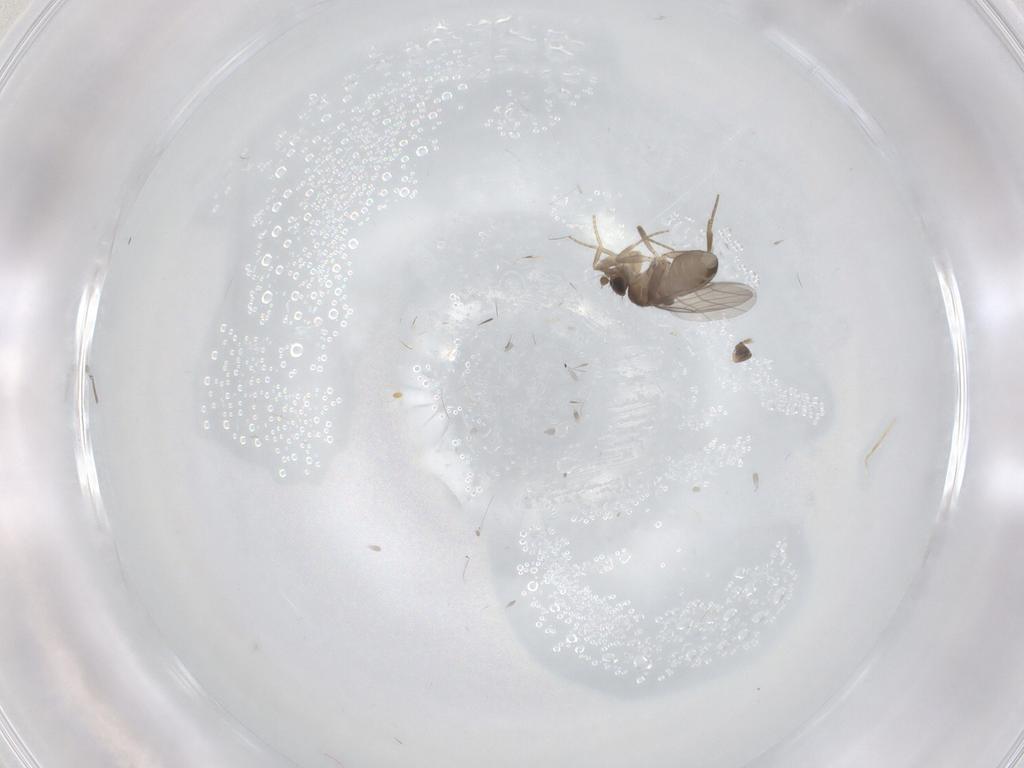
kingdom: Animalia
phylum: Arthropoda
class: Insecta
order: Diptera
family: Phoridae
